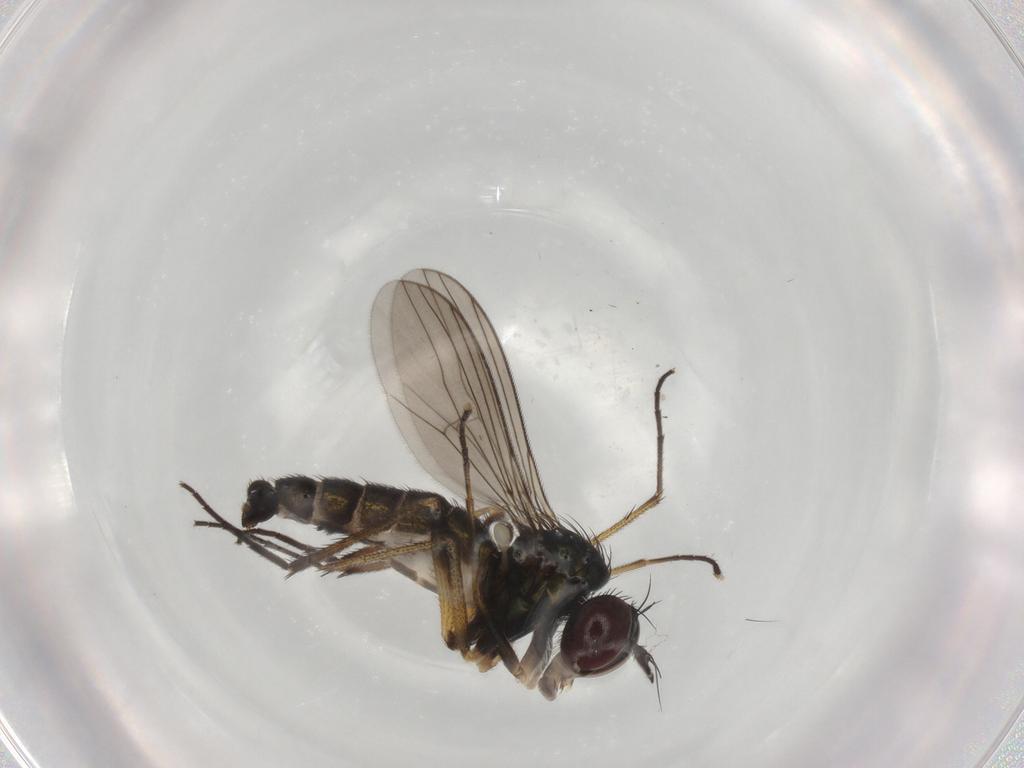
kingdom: Animalia
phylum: Arthropoda
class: Insecta
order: Diptera
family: Dolichopodidae
